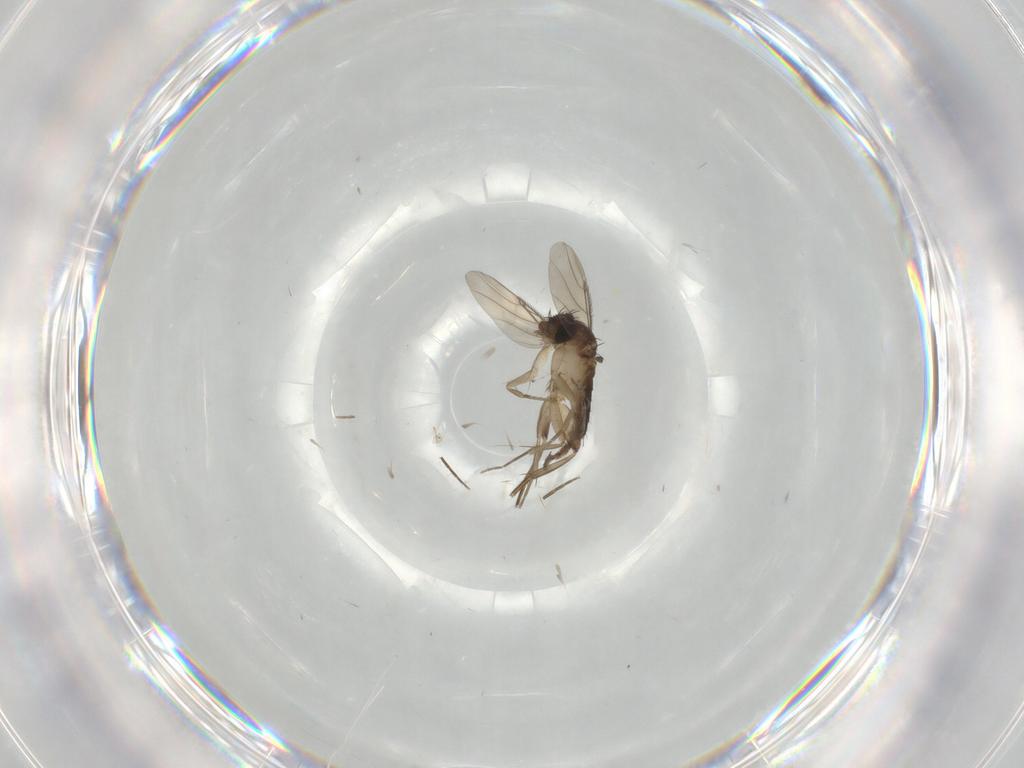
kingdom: Animalia
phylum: Arthropoda
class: Insecta
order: Diptera
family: Phoridae
